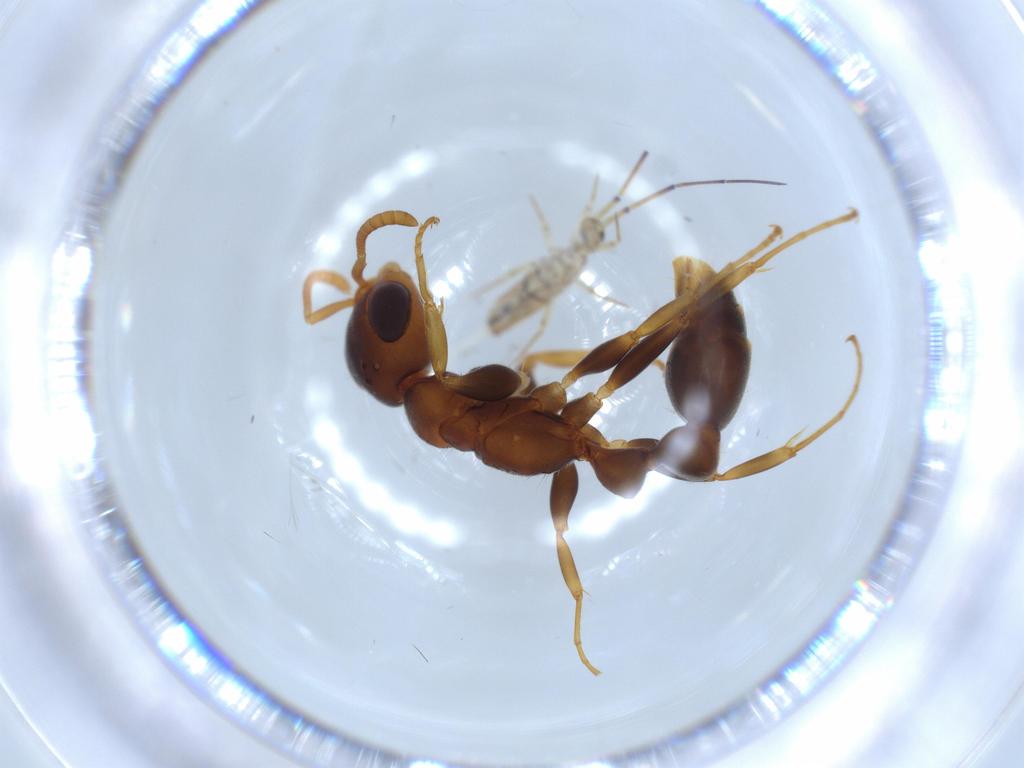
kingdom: Animalia
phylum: Arthropoda
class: Insecta
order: Hymenoptera
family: Formicidae
